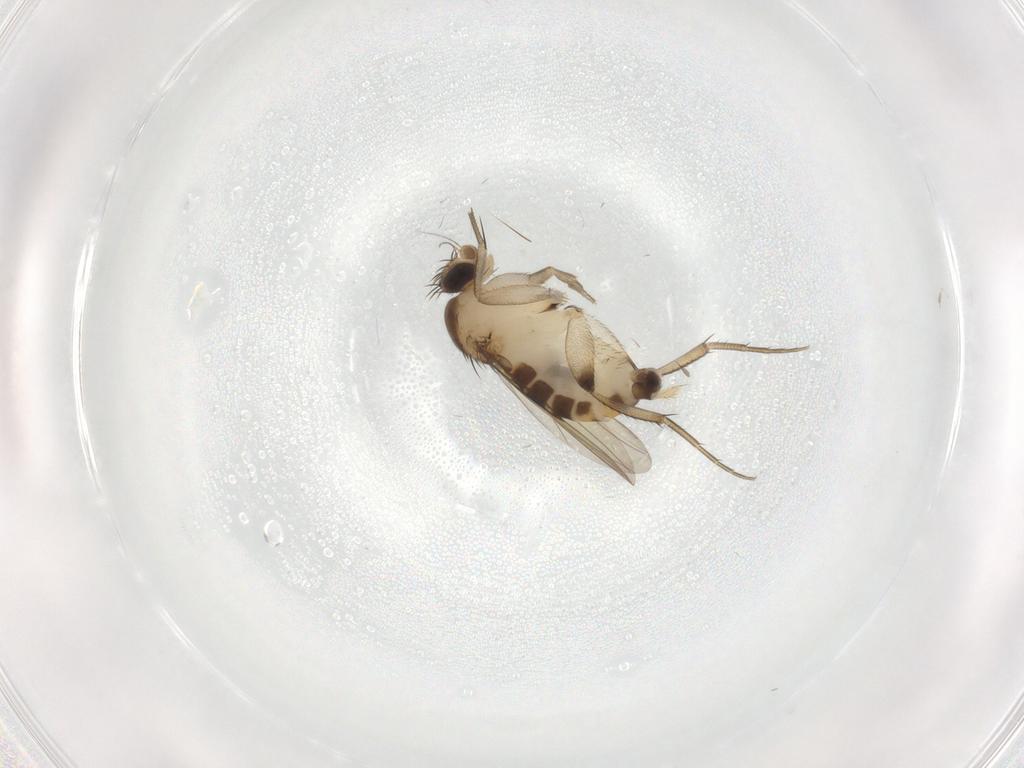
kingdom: Animalia
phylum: Arthropoda
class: Insecta
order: Diptera
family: Phoridae
